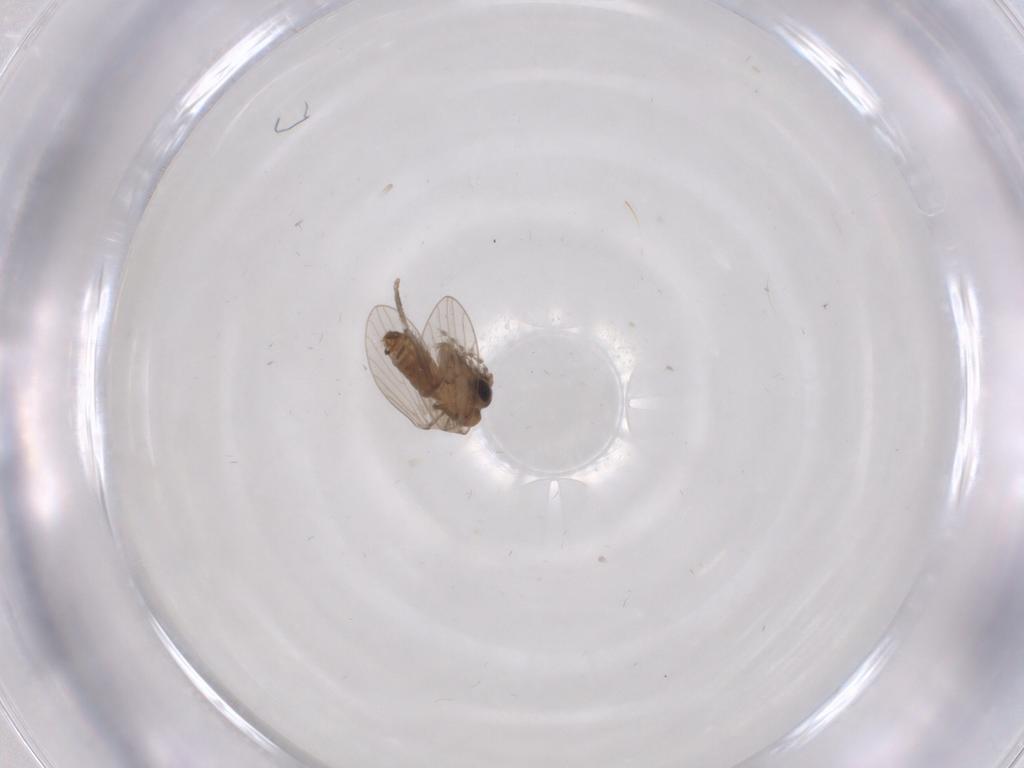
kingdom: Animalia
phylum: Arthropoda
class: Insecta
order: Diptera
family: Psychodidae
